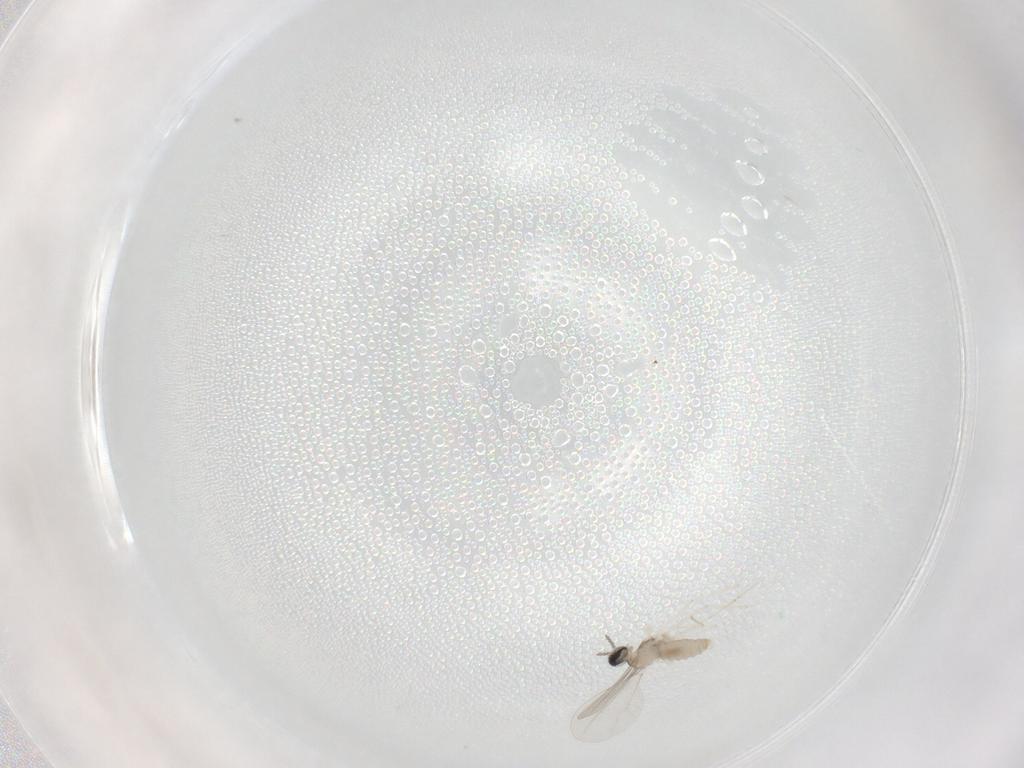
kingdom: Animalia
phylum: Arthropoda
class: Insecta
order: Diptera
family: Cecidomyiidae
